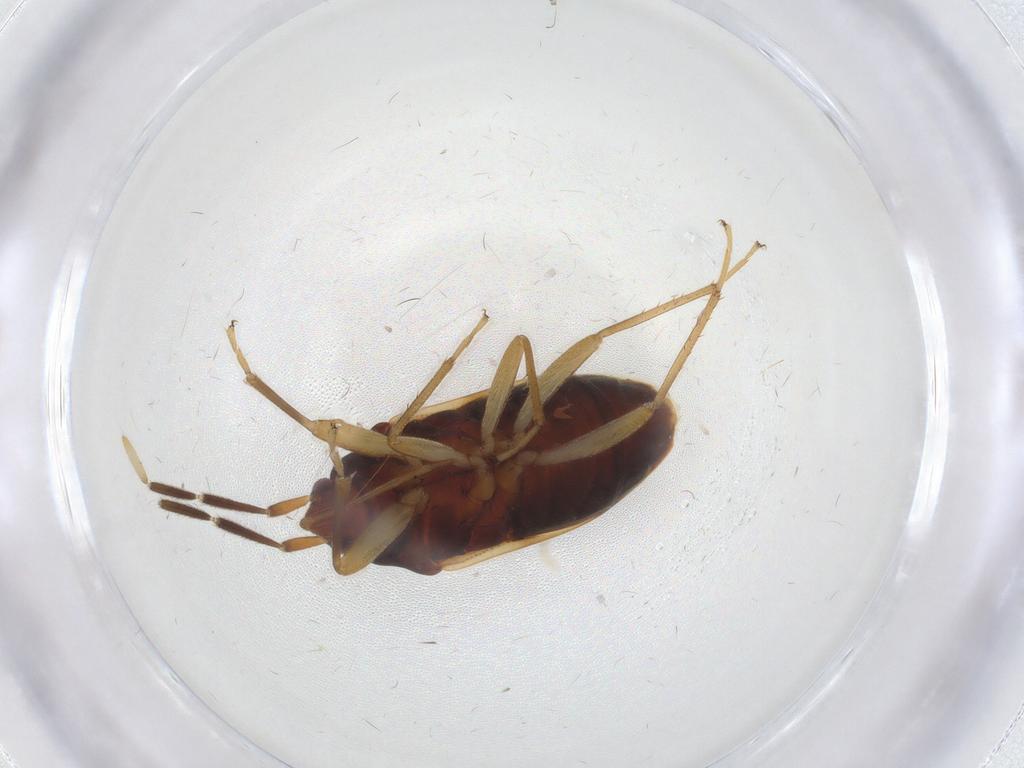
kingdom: Animalia
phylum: Arthropoda
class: Insecta
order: Hemiptera
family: Rhyparochromidae
